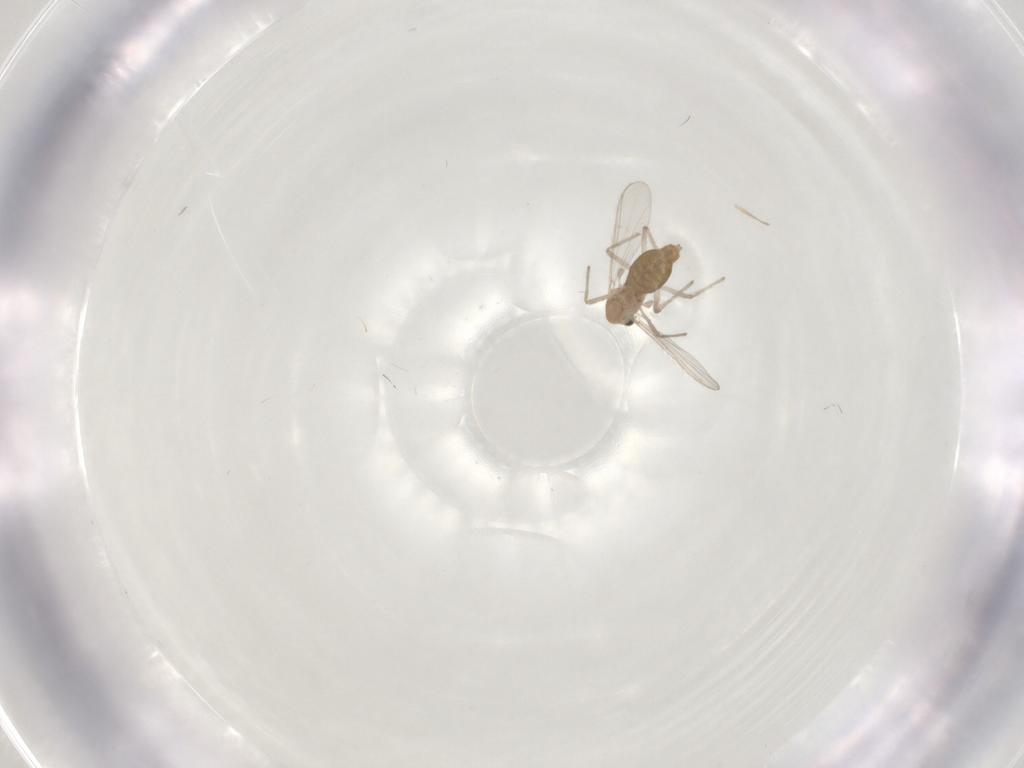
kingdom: Animalia
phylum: Arthropoda
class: Insecta
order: Diptera
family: Chironomidae
